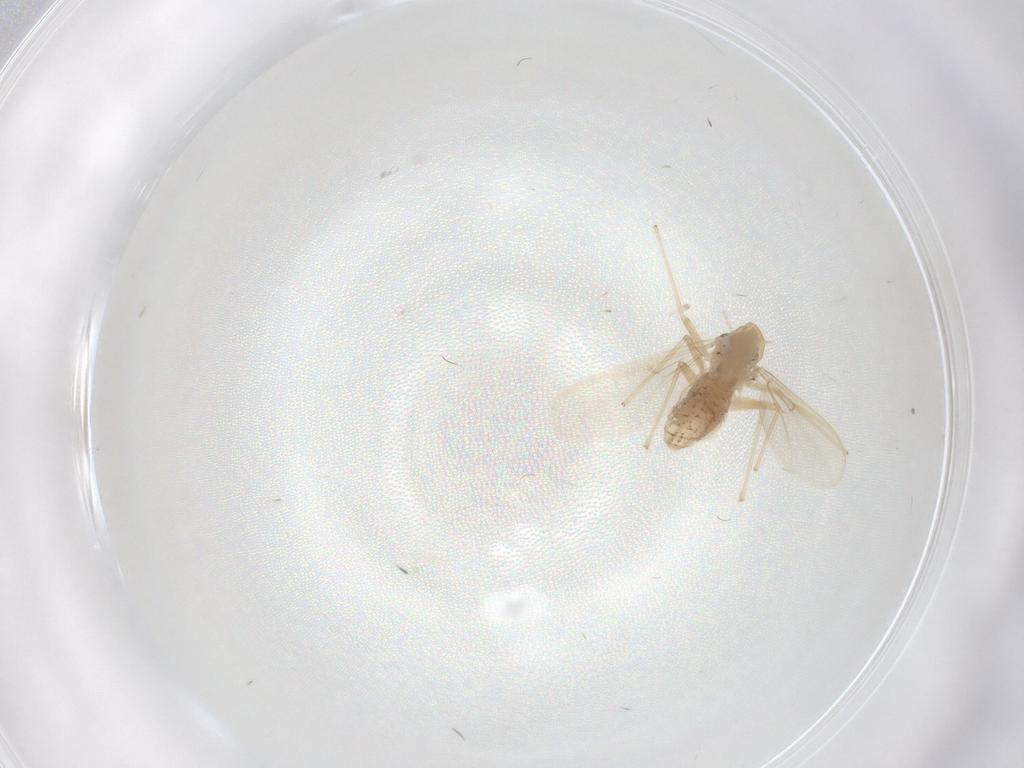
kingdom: Animalia
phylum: Arthropoda
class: Insecta
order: Diptera
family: Chironomidae
